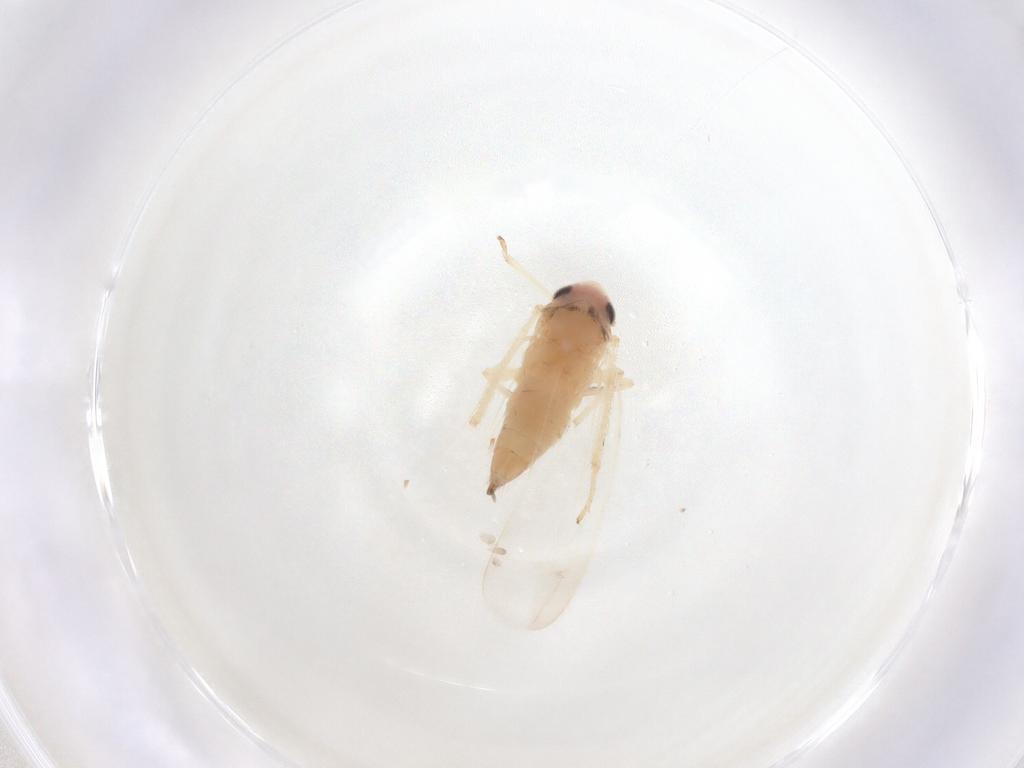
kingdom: Animalia
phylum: Arthropoda
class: Insecta
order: Hemiptera
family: Cicadellidae
